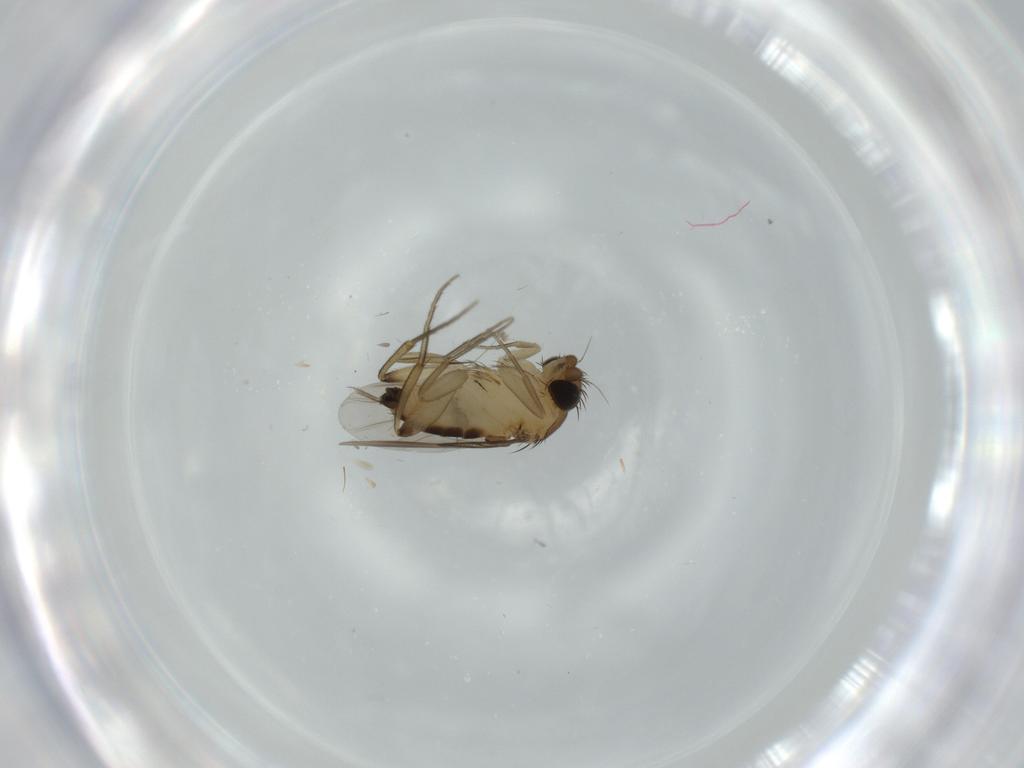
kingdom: Animalia
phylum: Arthropoda
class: Insecta
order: Diptera
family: Phoridae
